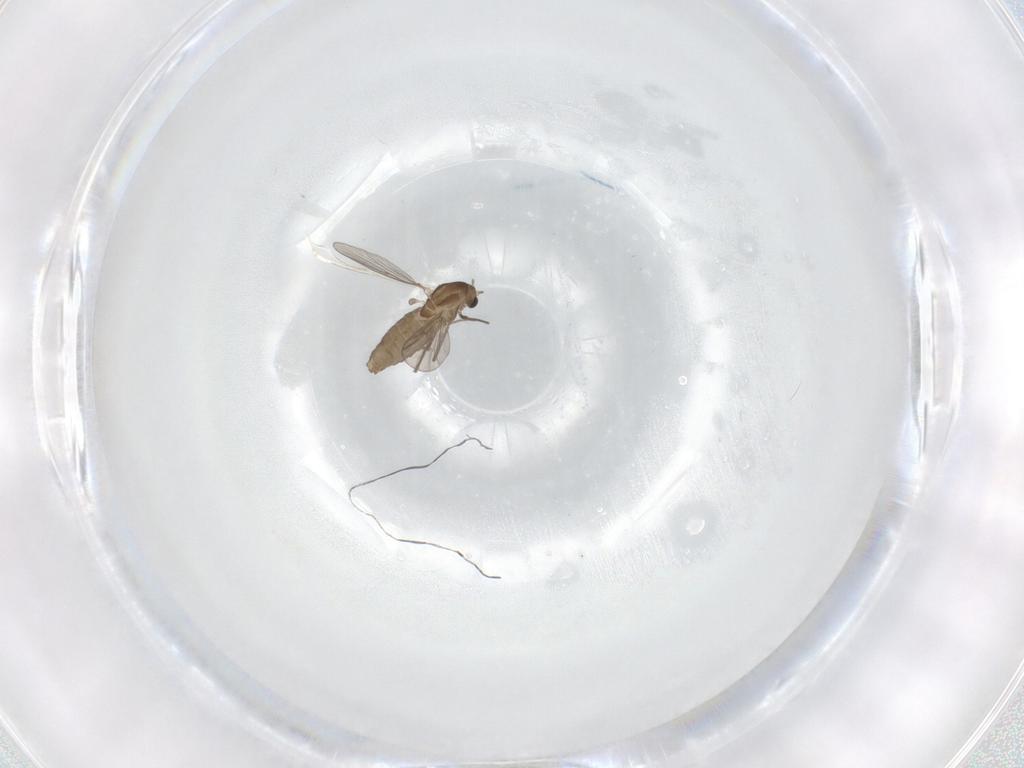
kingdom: Animalia
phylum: Arthropoda
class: Insecta
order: Diptera
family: Chironomidae
